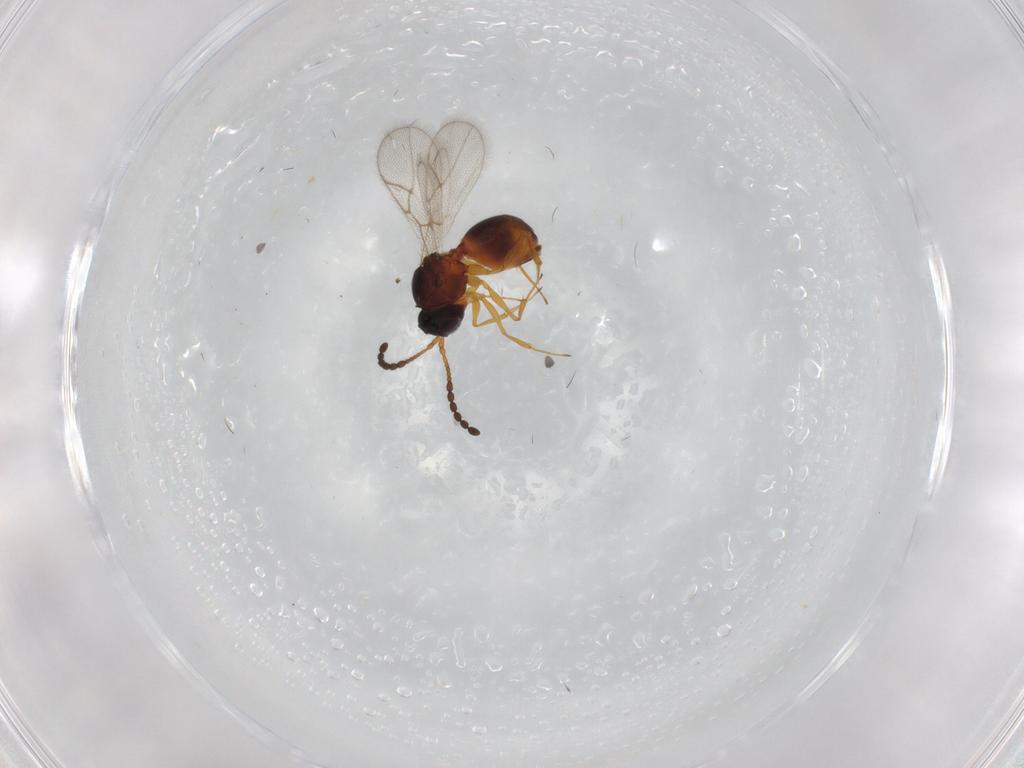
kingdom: Animalia
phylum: Arthropoda
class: Insecta
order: Hymenoptera
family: Figitidae
